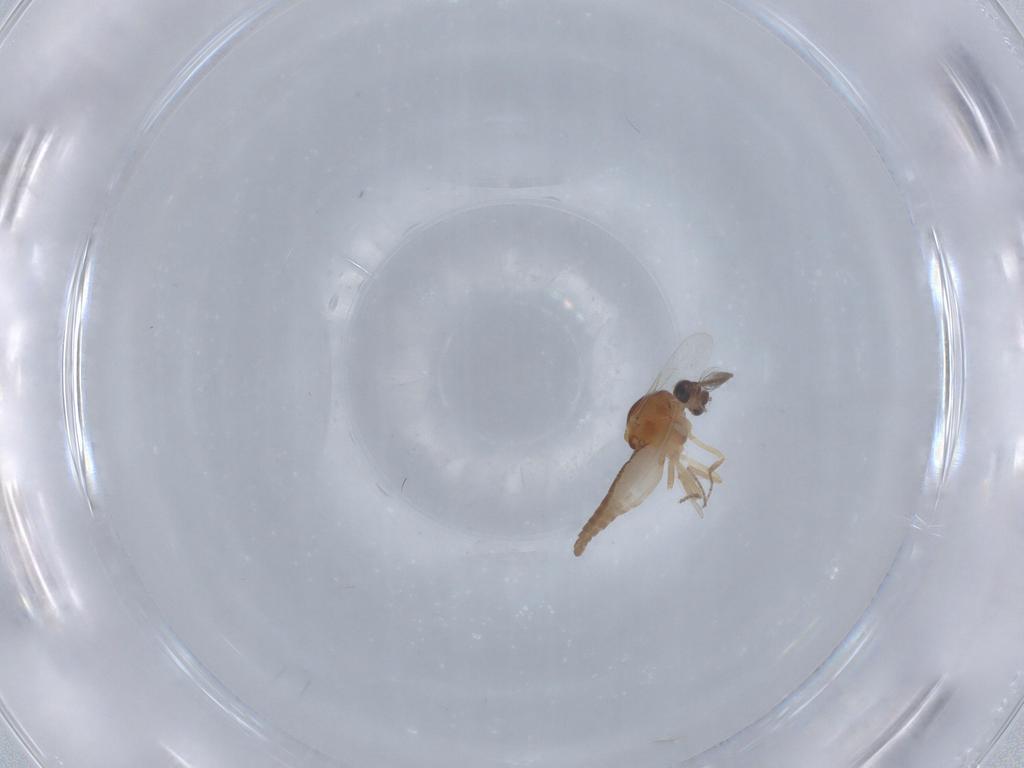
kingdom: Animalia
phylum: Arthropoda
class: Insecta
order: Diptera
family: Ceratopogonidae
